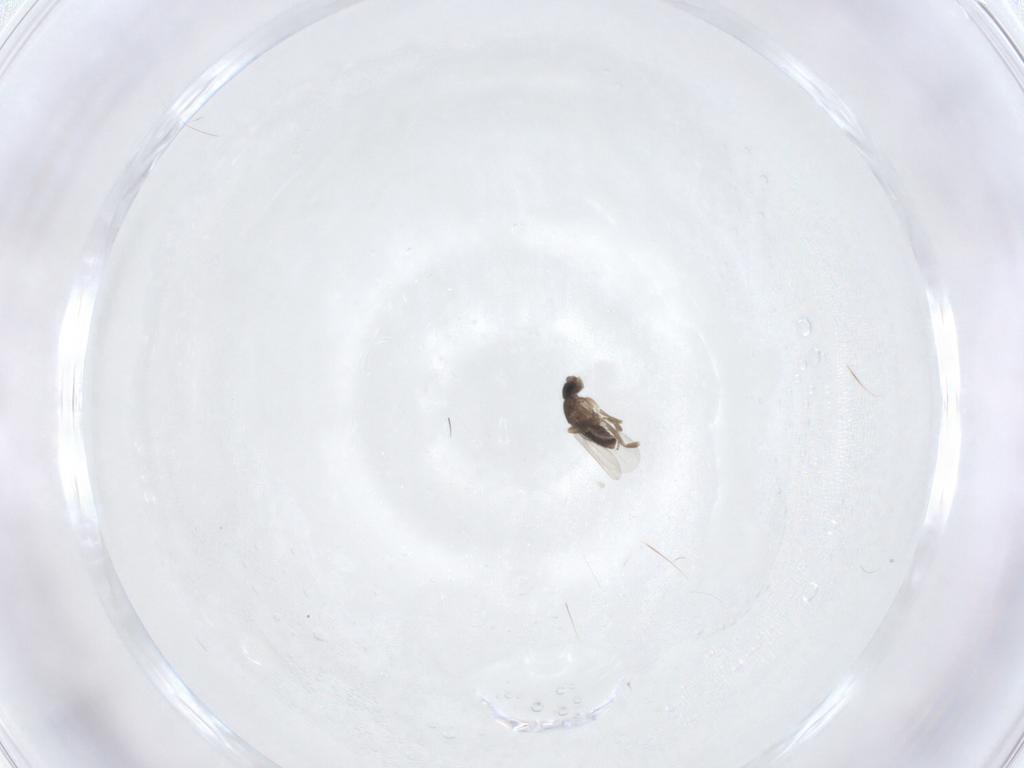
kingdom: Animalia
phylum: Arthropoda
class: Insecta
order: Diptera
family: Phoridae
